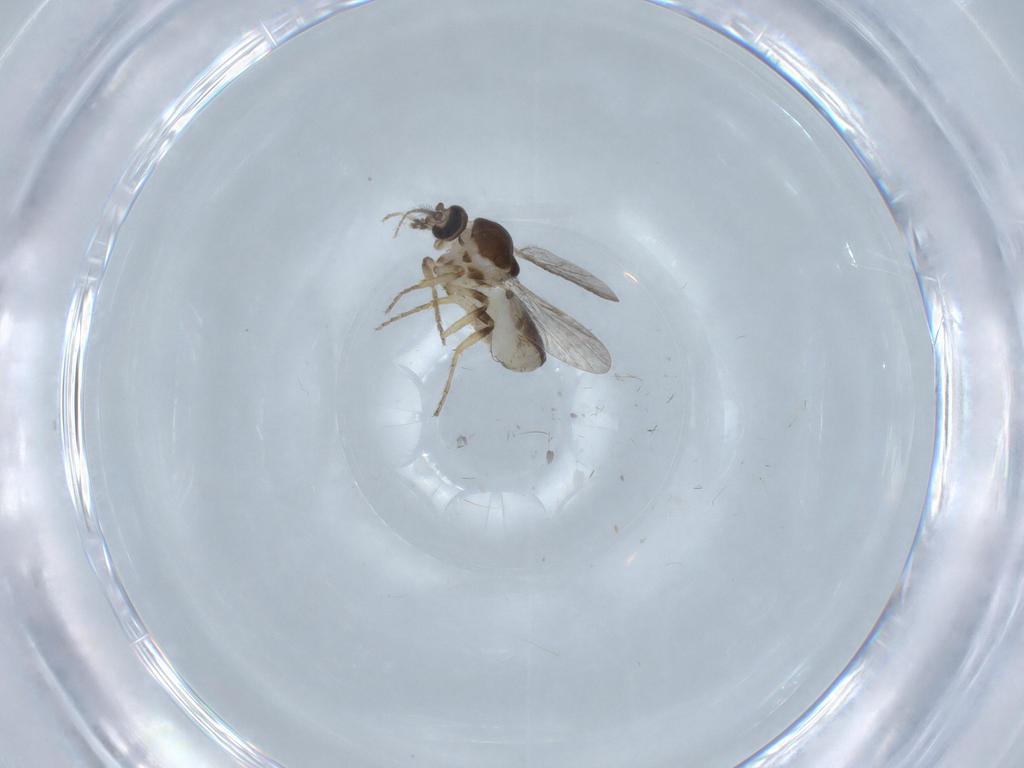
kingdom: Animalia
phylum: Arthropoda
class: Insecta
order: Diptera
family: Ceratopogonidae
